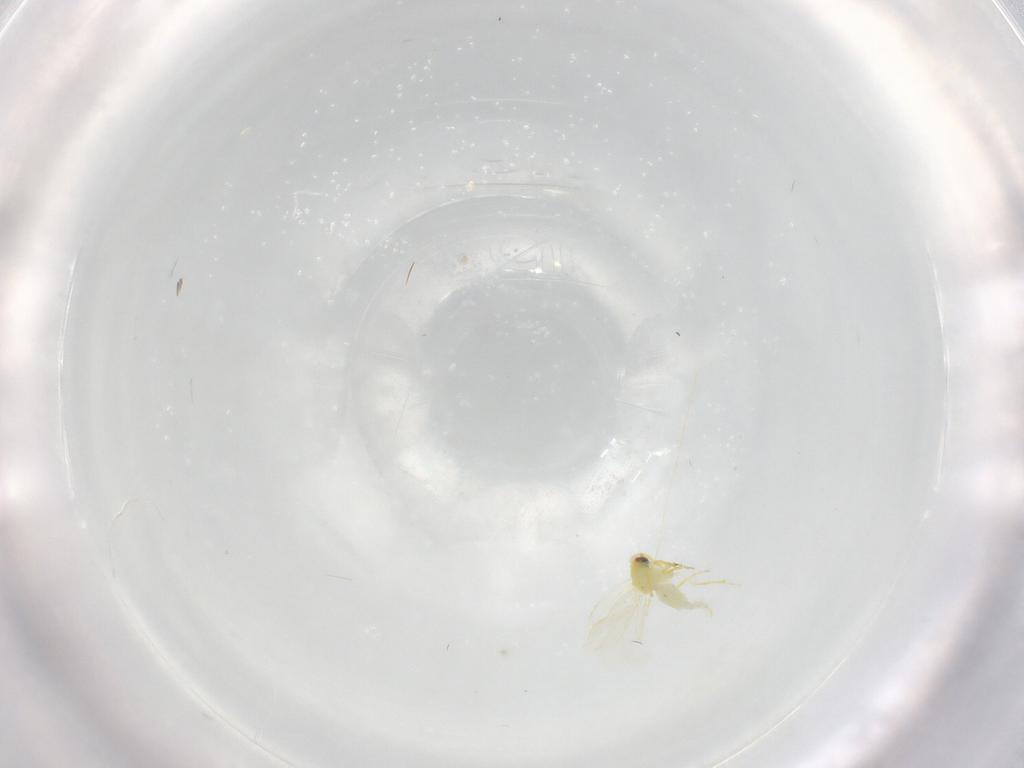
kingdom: Animalia
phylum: Arthropoda
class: Insecta
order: Hemiptera
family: Aleyrodidae
